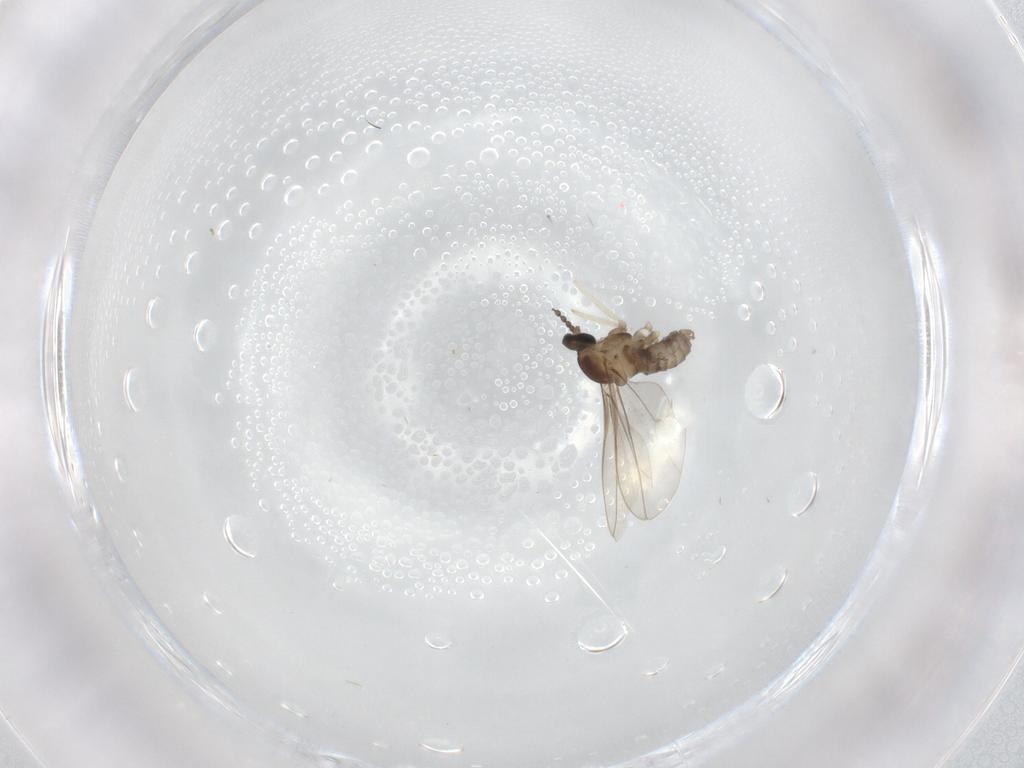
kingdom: Animalia
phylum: Arthropoda
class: Insecta
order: Diptera
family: Cecidomyiidae
